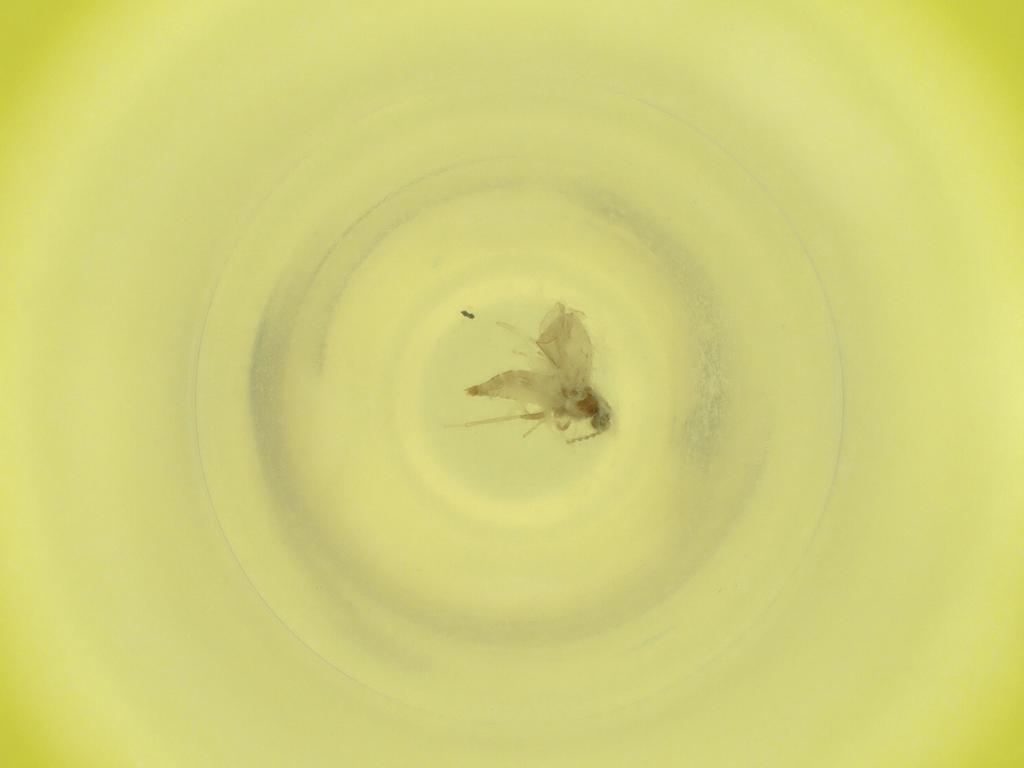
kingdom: Animalia
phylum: Arthropoda
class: Insecta
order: Diptera
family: Cecidomyiidae
